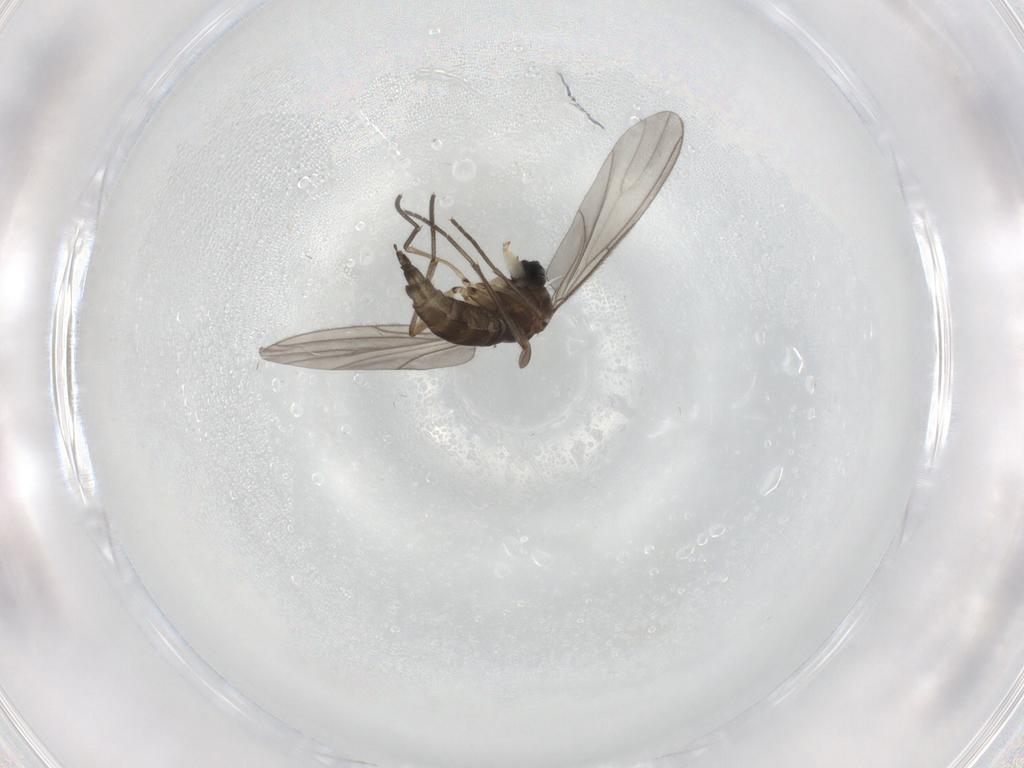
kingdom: Animalia
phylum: Arthropoda
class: Insecta
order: Diptera
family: Sciaridae
